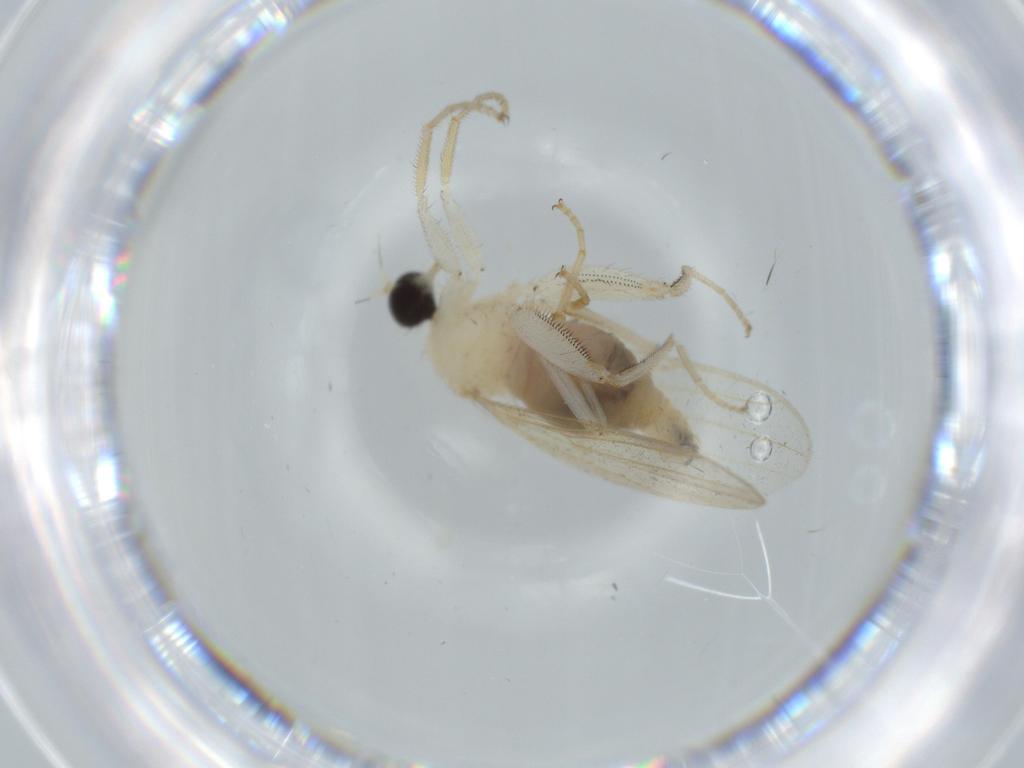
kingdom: Animalia
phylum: Arthropoda
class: Insecta
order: Diptera
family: Hybotidae
